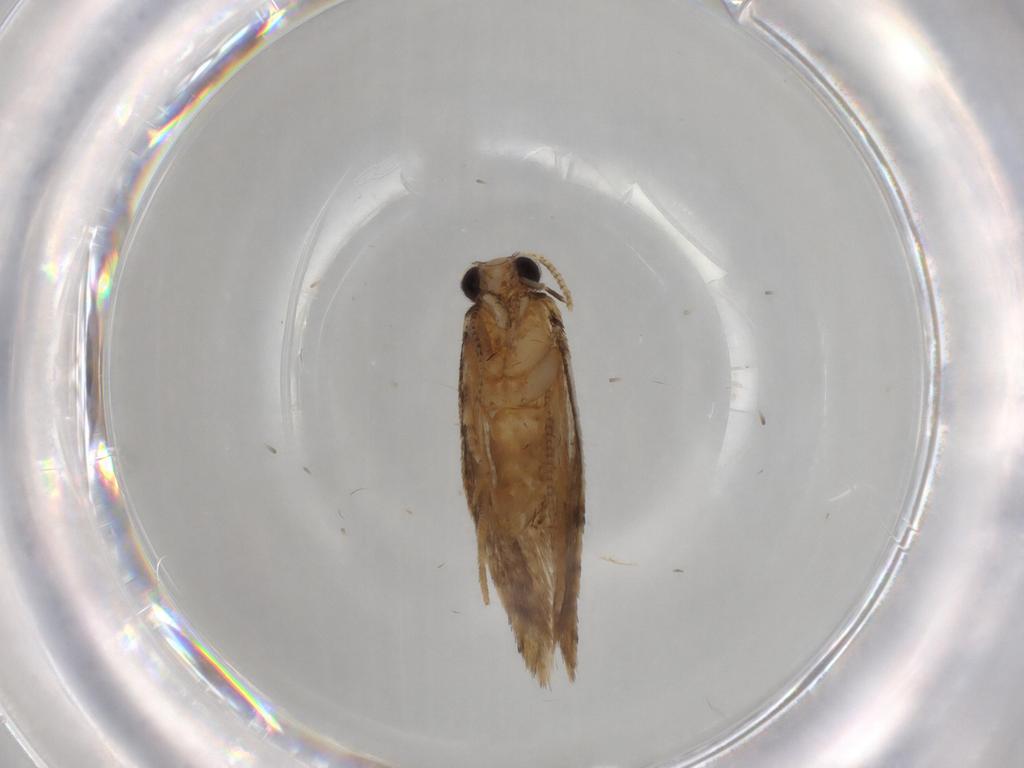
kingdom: Animalia
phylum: Arthropoda
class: Insecta
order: Lepidoptera
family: Tineidae
